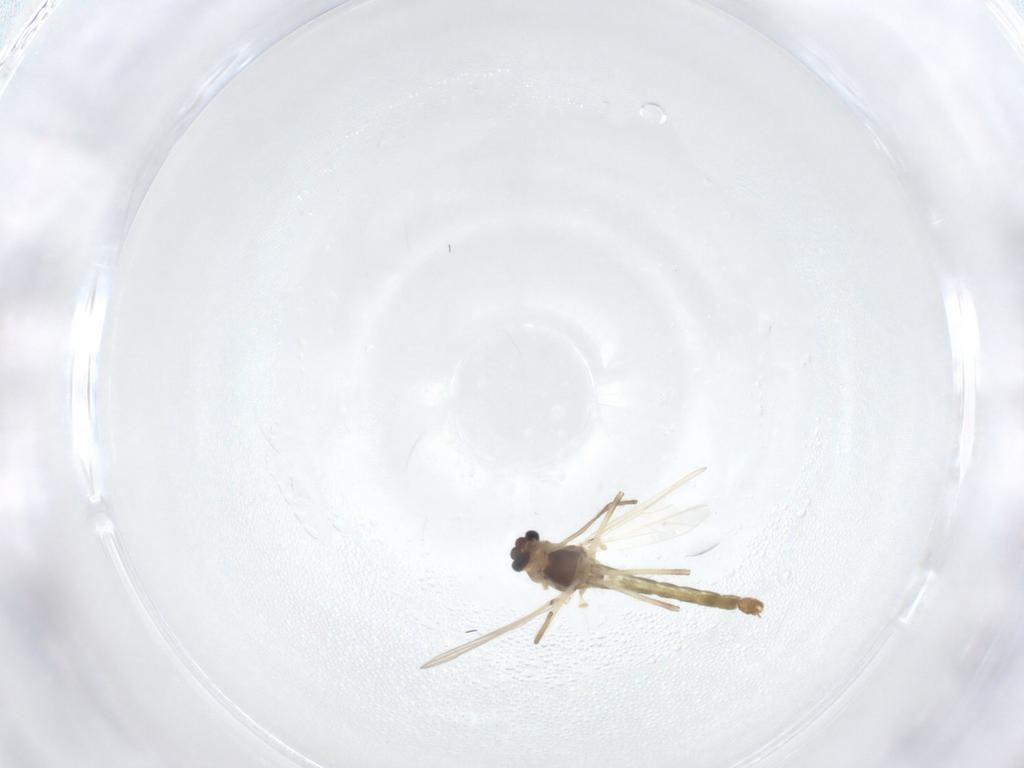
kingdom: Animalia
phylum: Arthropoda
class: Insecta
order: Diptera
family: Chironomidae
